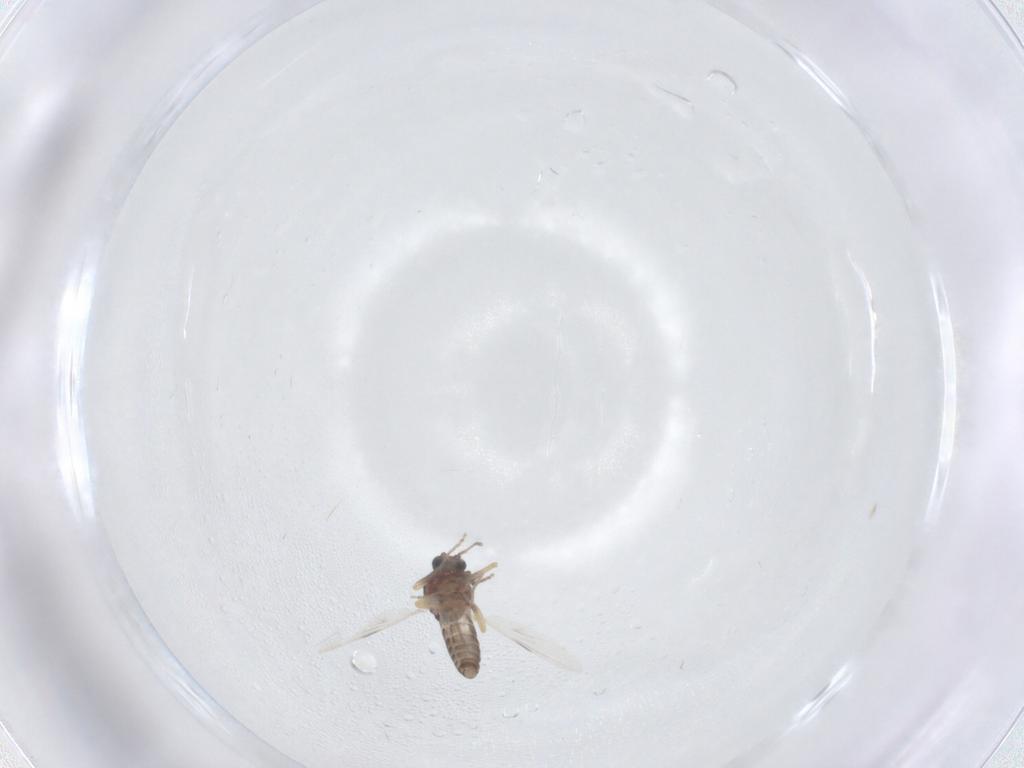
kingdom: Animalia
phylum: Arthropoda
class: Insecta
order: Diptera
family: Ceratopogonidae
